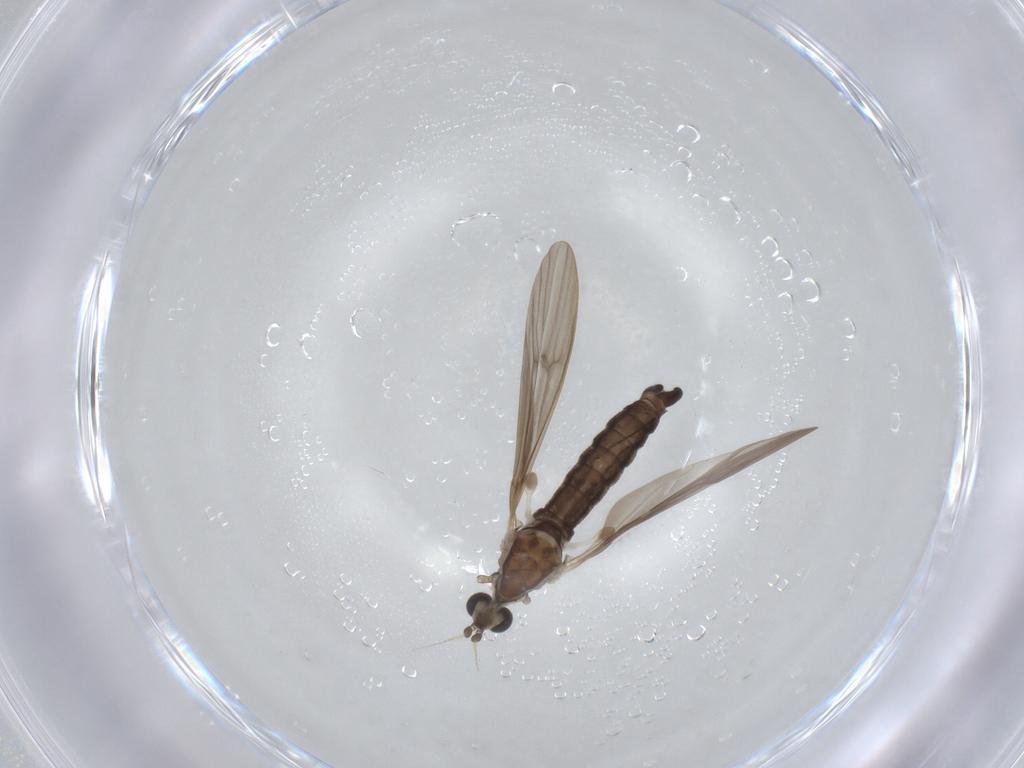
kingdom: Animalia
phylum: Arthropoda
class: Insecta
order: Diptera
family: Limoniidae
